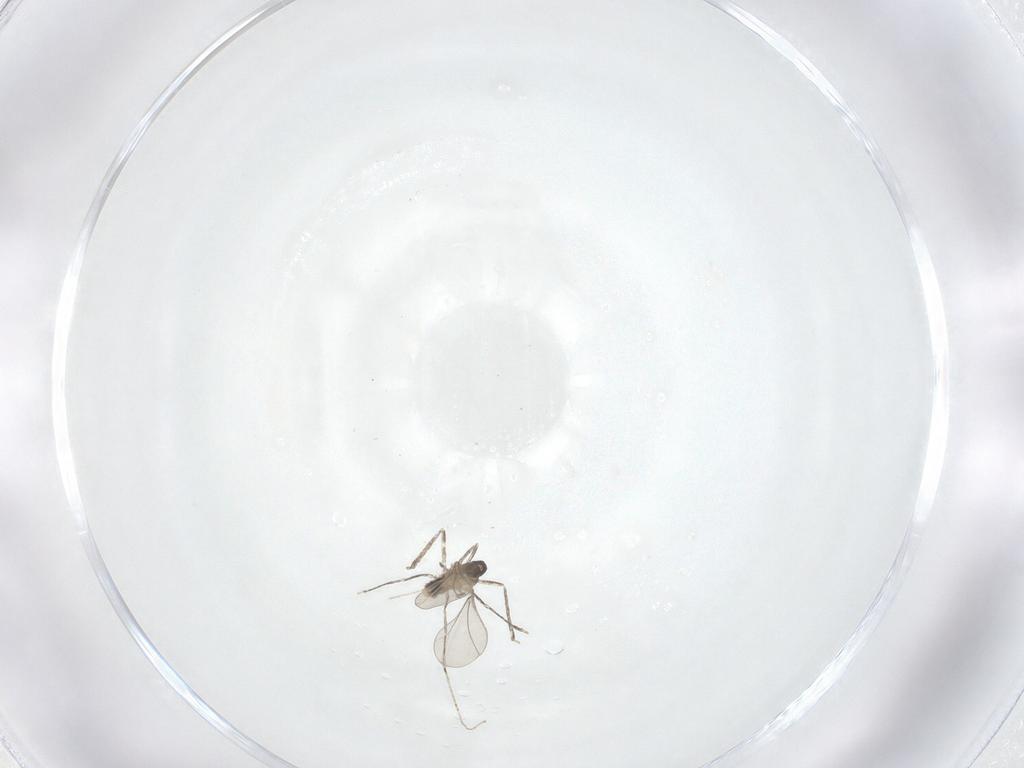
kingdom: Animalia
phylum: Arthropoda
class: Insecta
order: Diptera
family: Cecidomyiidae
